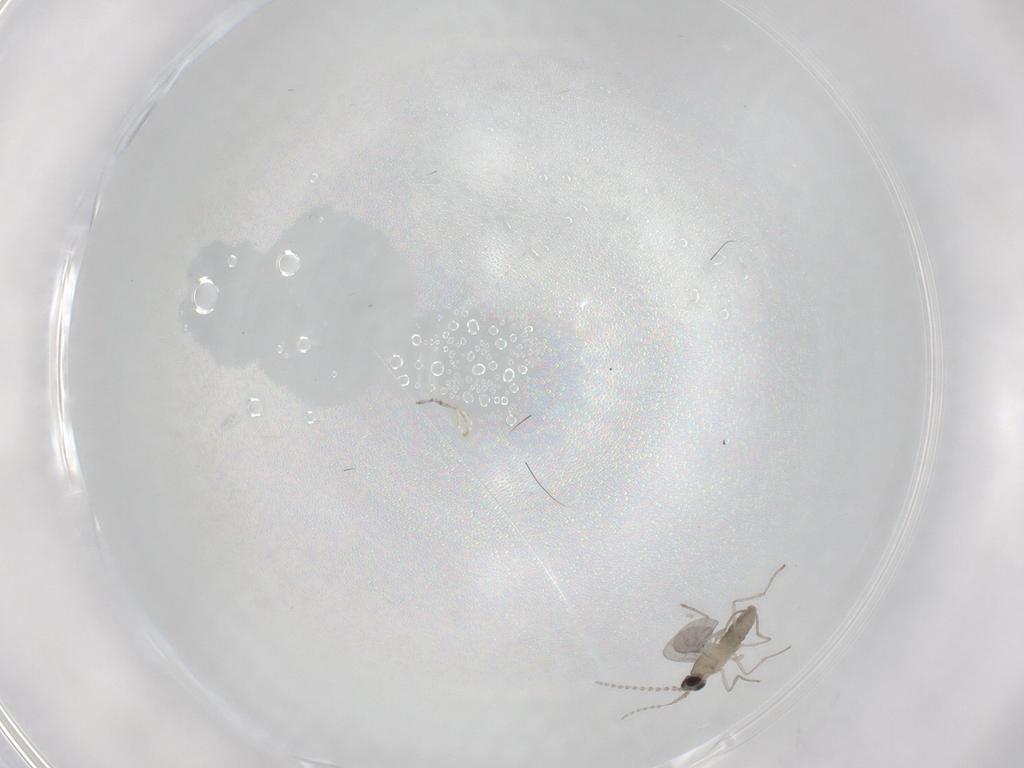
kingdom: Animalia
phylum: Arthropoda
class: Insecta
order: Diptera
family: Cecidomyiidae
